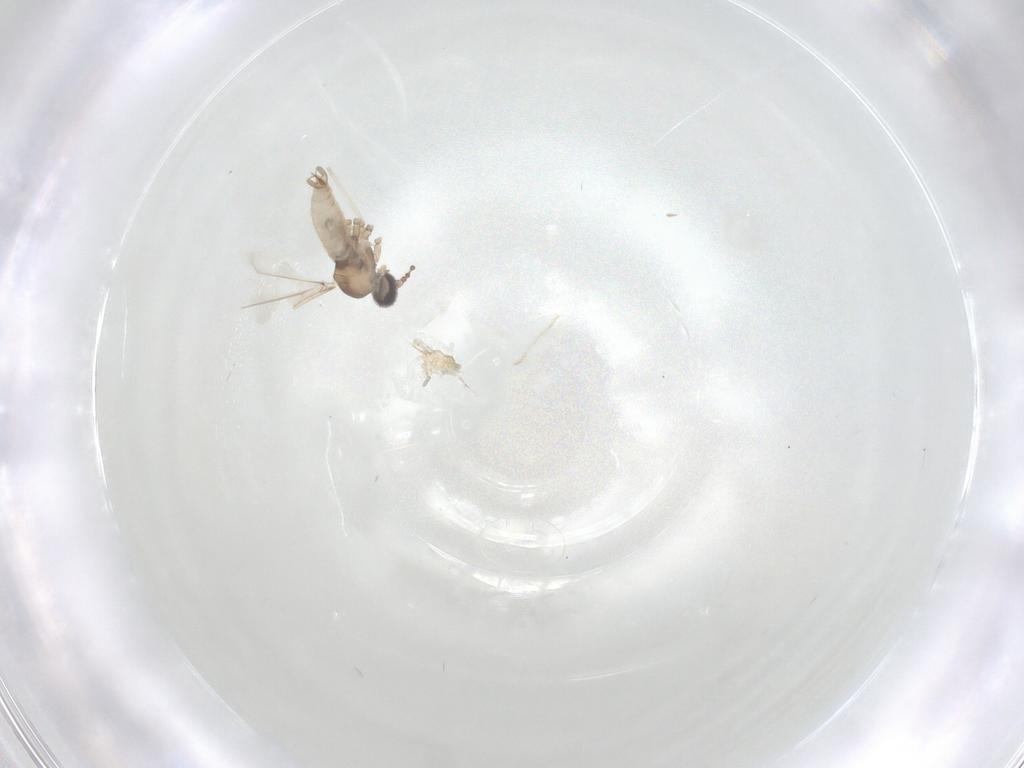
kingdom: Animalia
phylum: Arthropoda
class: Insecta
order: Diptera
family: Cecidomyiidae
